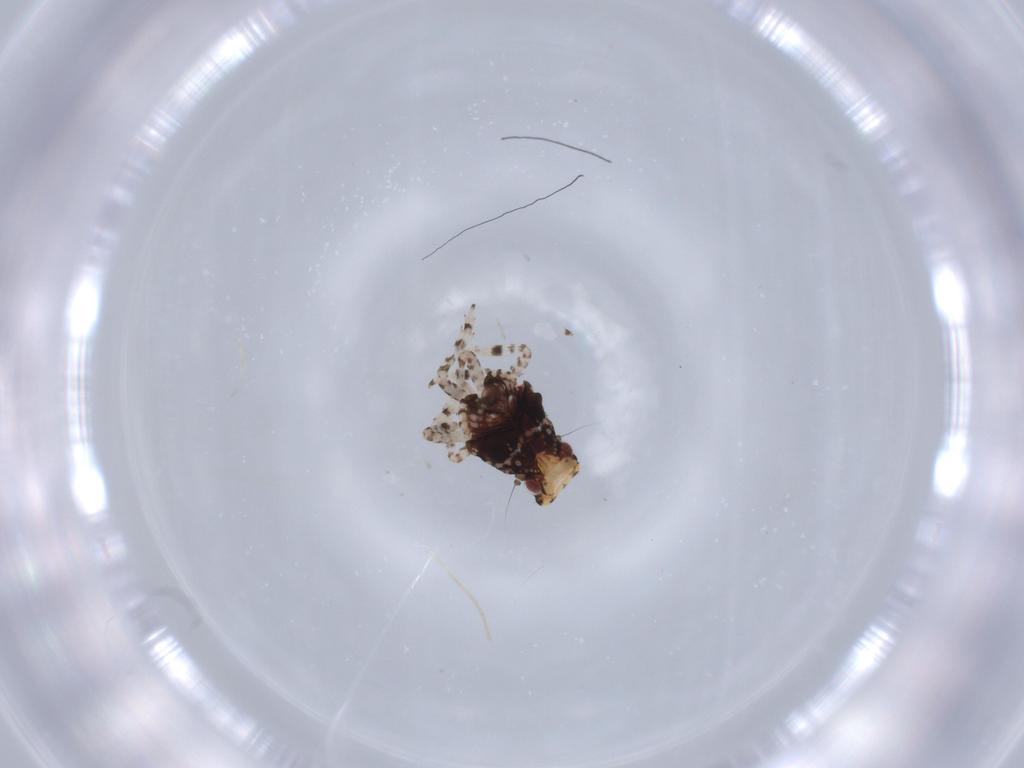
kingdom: Animalia
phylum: Arthropoda
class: Insecta
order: Hemiptera
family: Fulgoroidea_incertae_sedis
